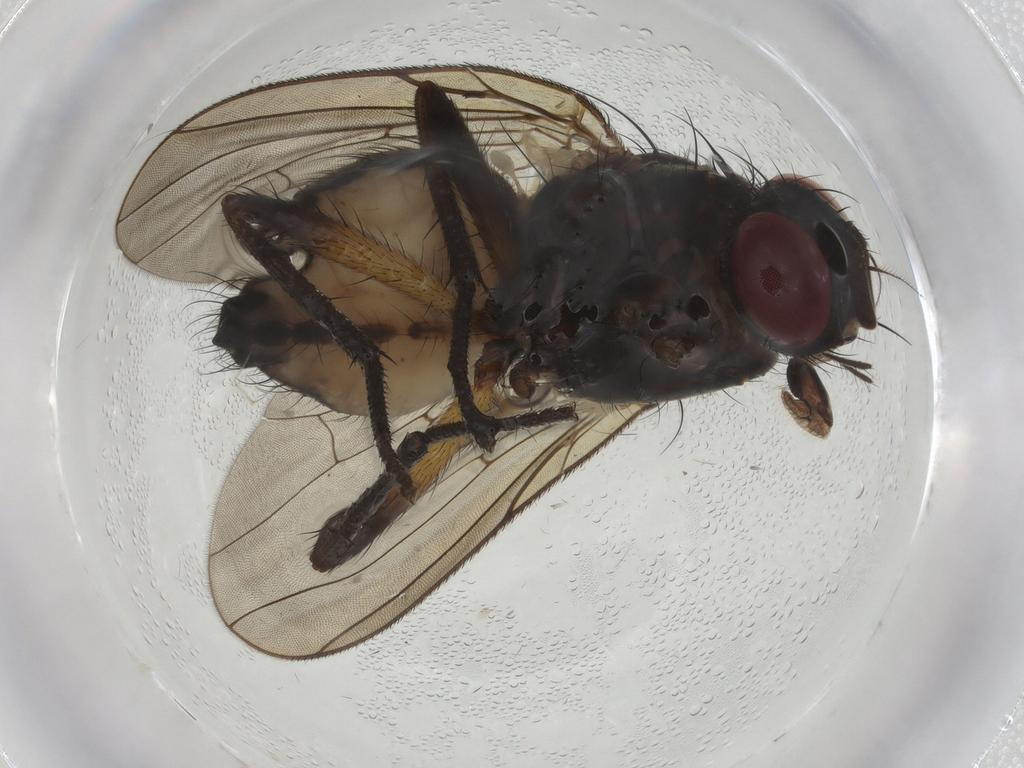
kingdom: Animalia
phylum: Arthropoda
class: Insecta
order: Diptera
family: Anthomyiidae
